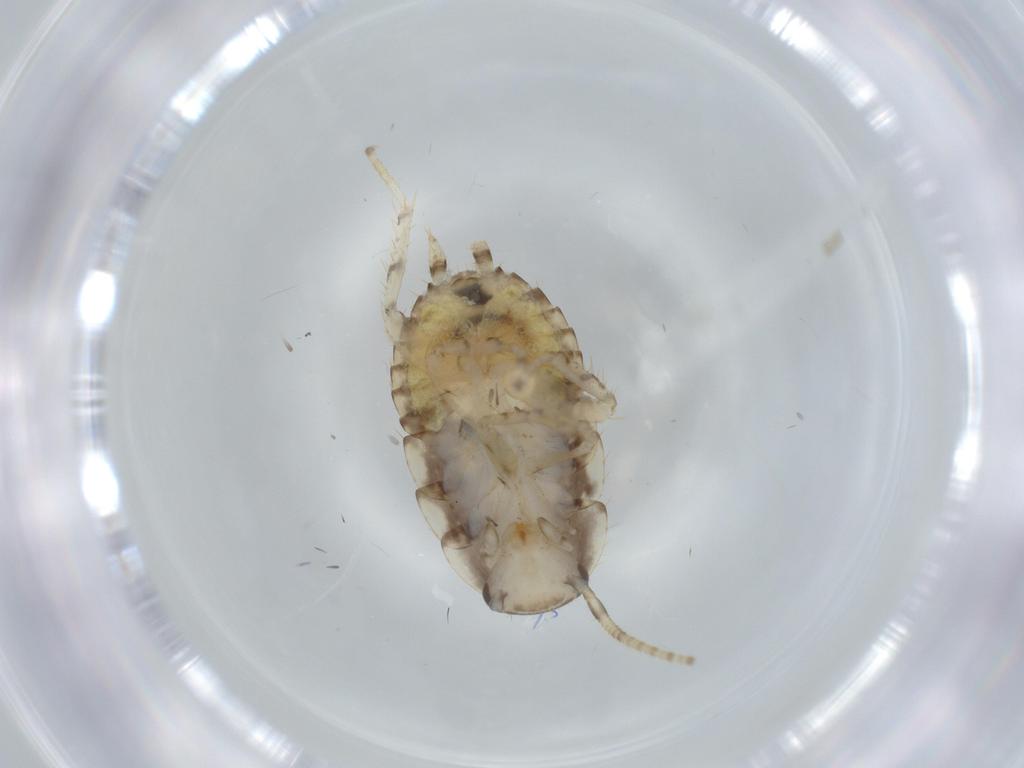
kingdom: Animalia
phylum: Arthropoda
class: Insecta
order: Blattodea
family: Ectobiidae
